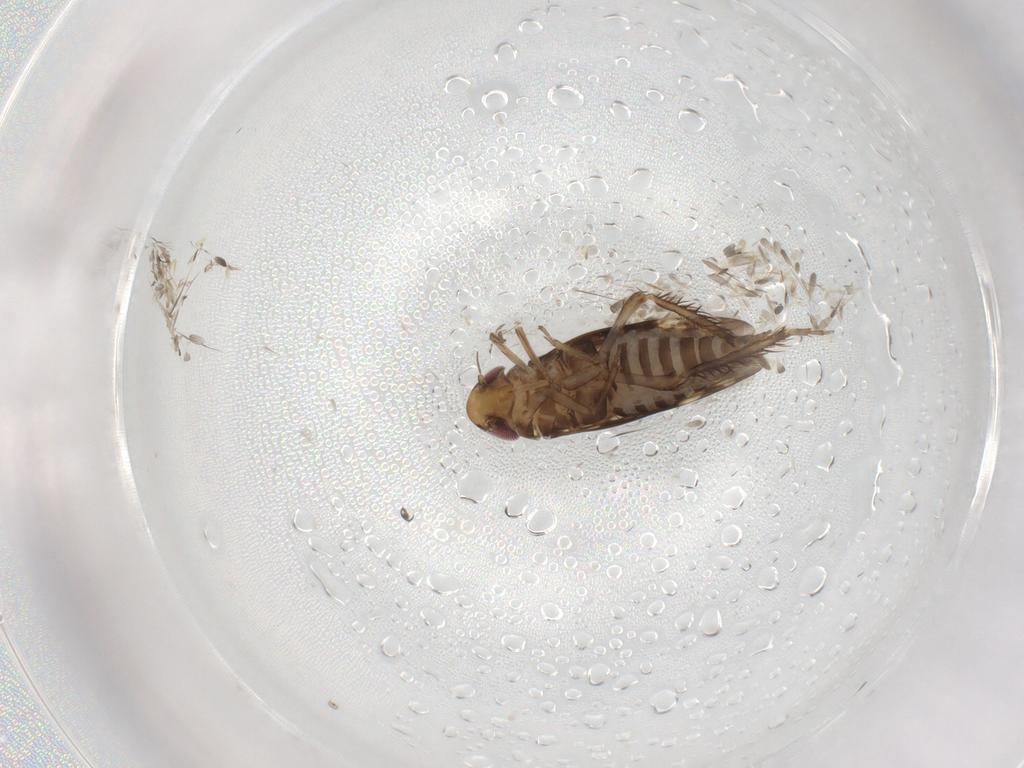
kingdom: Animalia
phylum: Arthropoda
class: Insecta
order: Hemiptera
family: Cicadellidae
